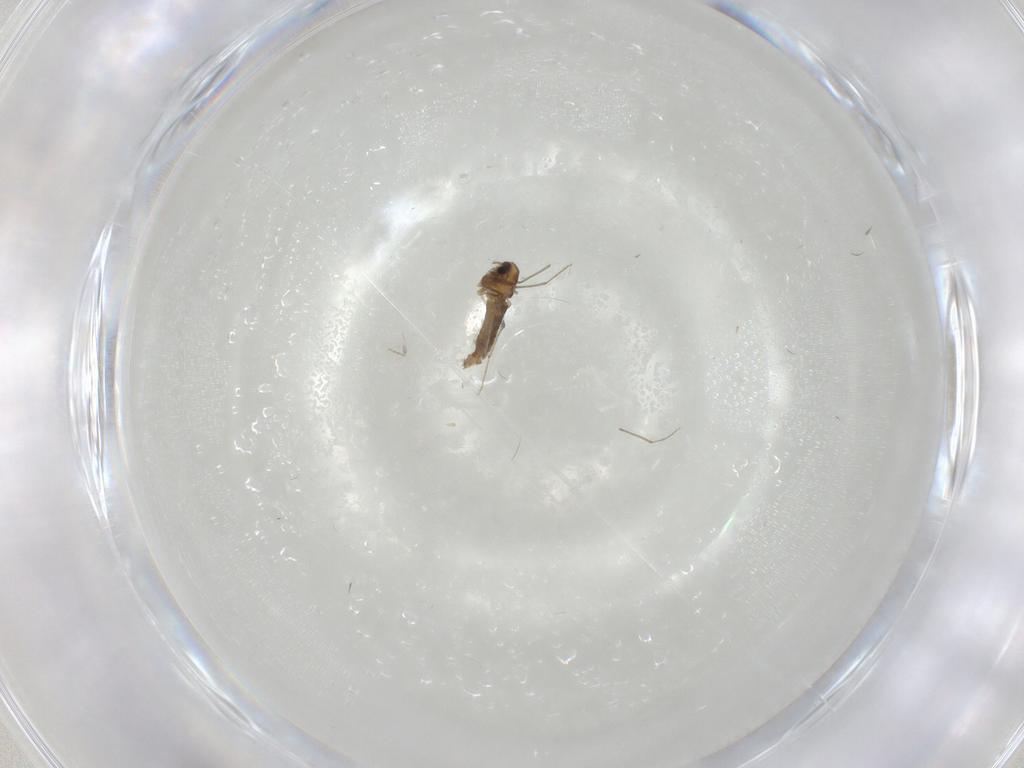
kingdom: Animalia
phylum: Arthropoda
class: Insecta
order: Diptera
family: Chironomidae
